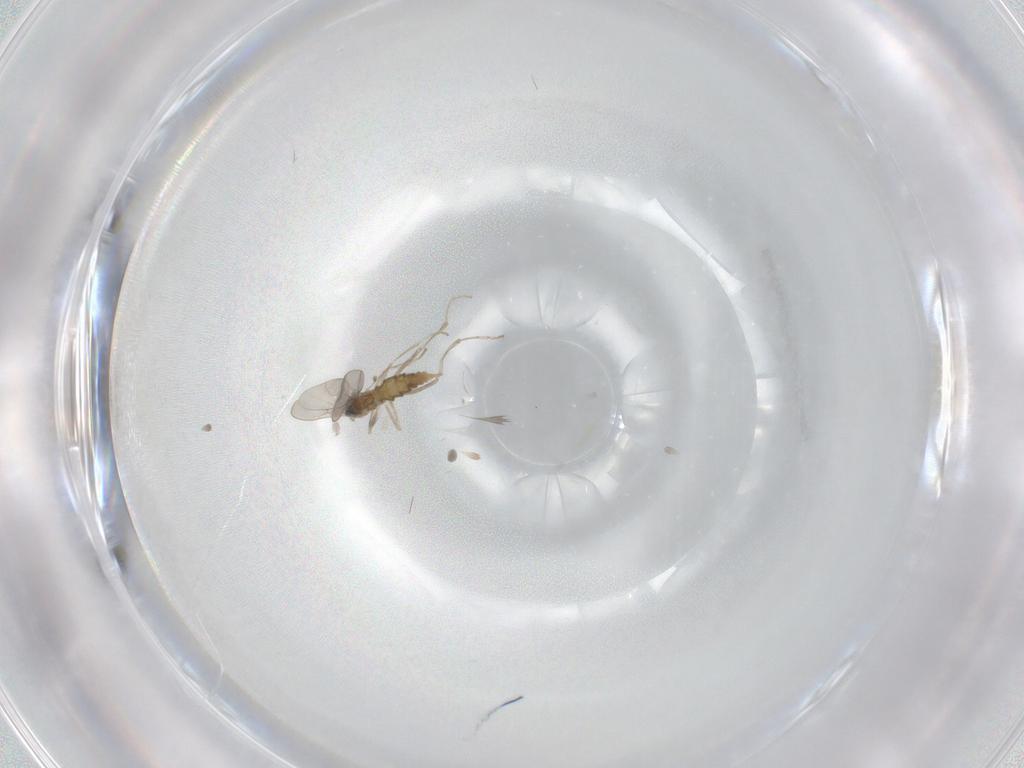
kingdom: Animalia
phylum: Arthropoda
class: Insecta
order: Diptera
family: Cecidomyiidae
